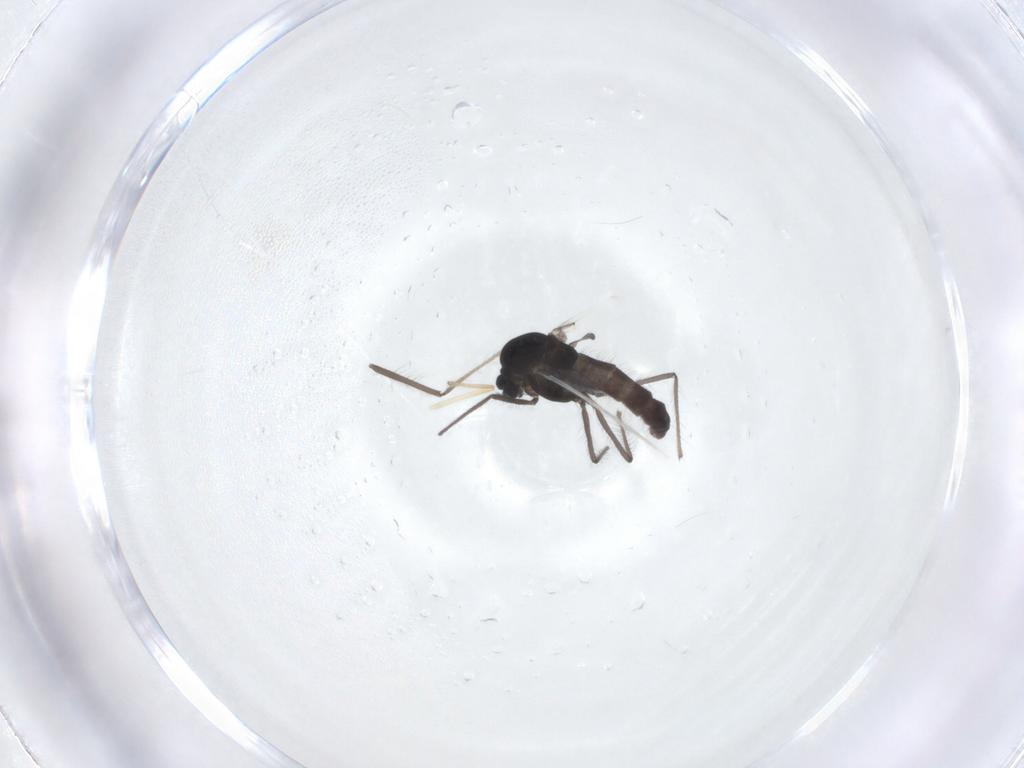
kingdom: Animalia
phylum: Arthropoda
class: Insecta
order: Diptera
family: Chironomidae
